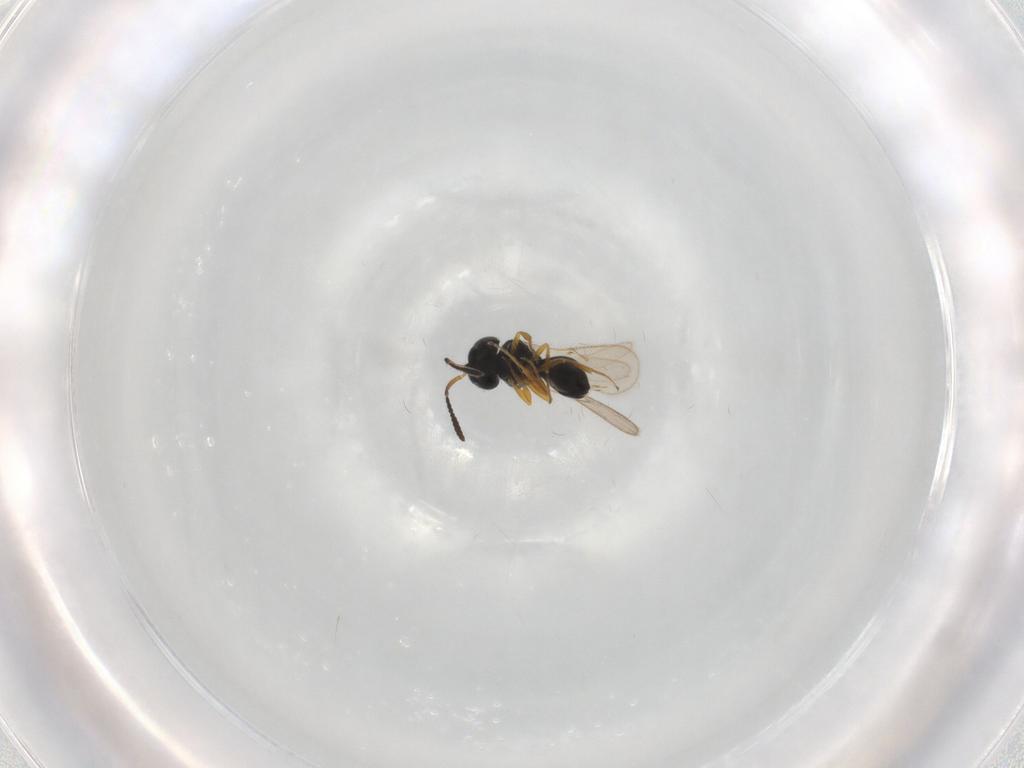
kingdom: Animalia
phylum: Arthropoda
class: Insecta
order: Hymenoptera
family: Scelionidae
